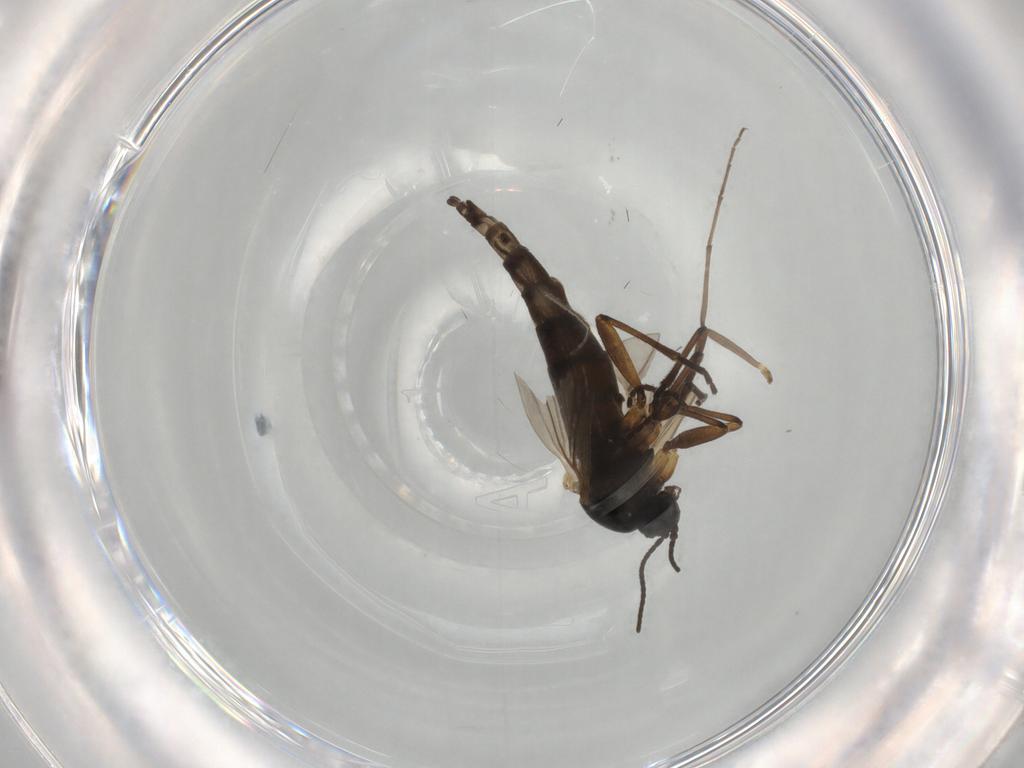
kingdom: Animalia
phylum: Arthropoda
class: Insecta
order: Diptera
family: Sciaridae
